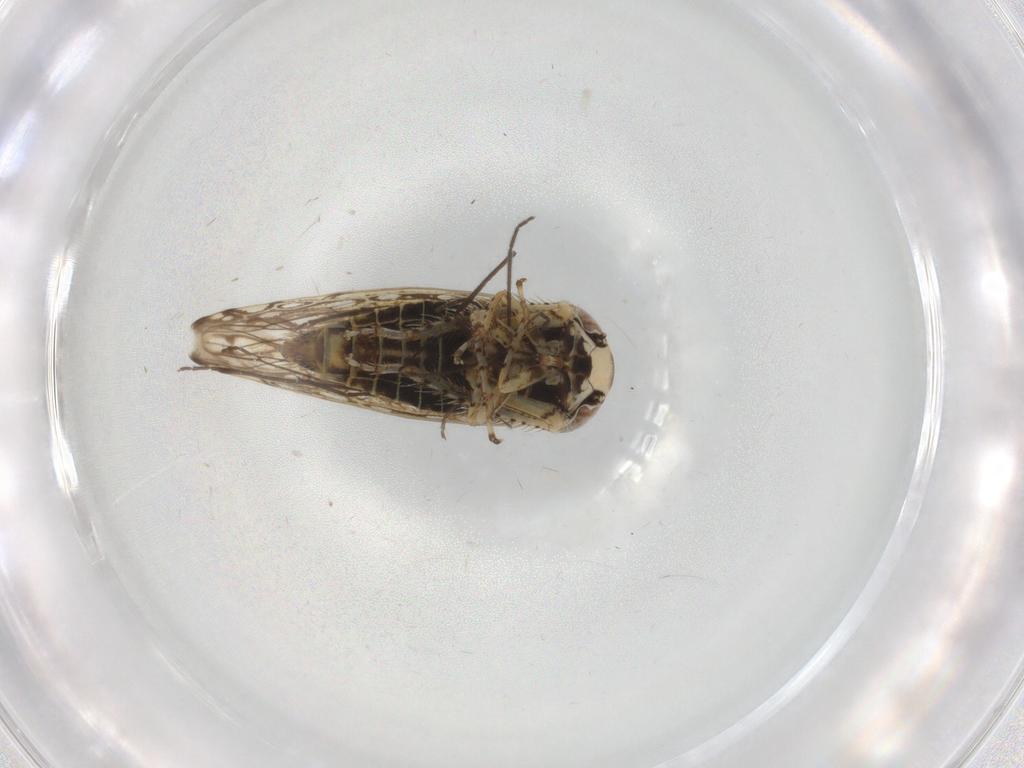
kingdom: Animalia
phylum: Arthropoda
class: Insecta
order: Hemiptera
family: Cicadellidae
